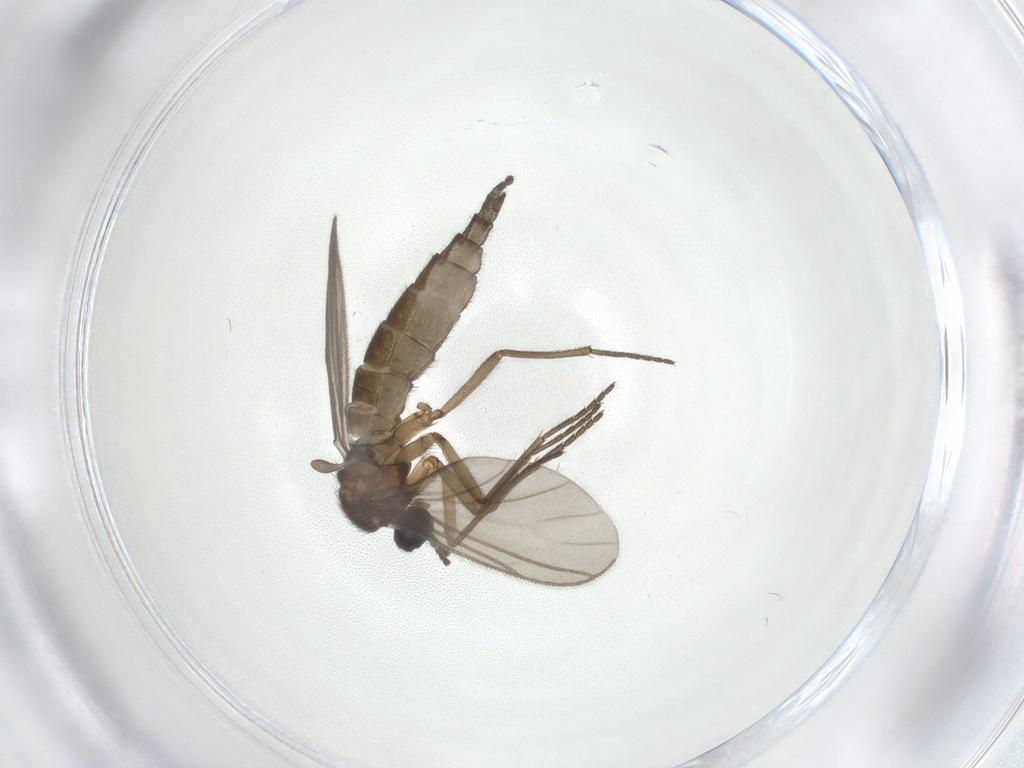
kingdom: Animalia
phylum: Arthropoda
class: Insecta
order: Diptera
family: Sciaridae
